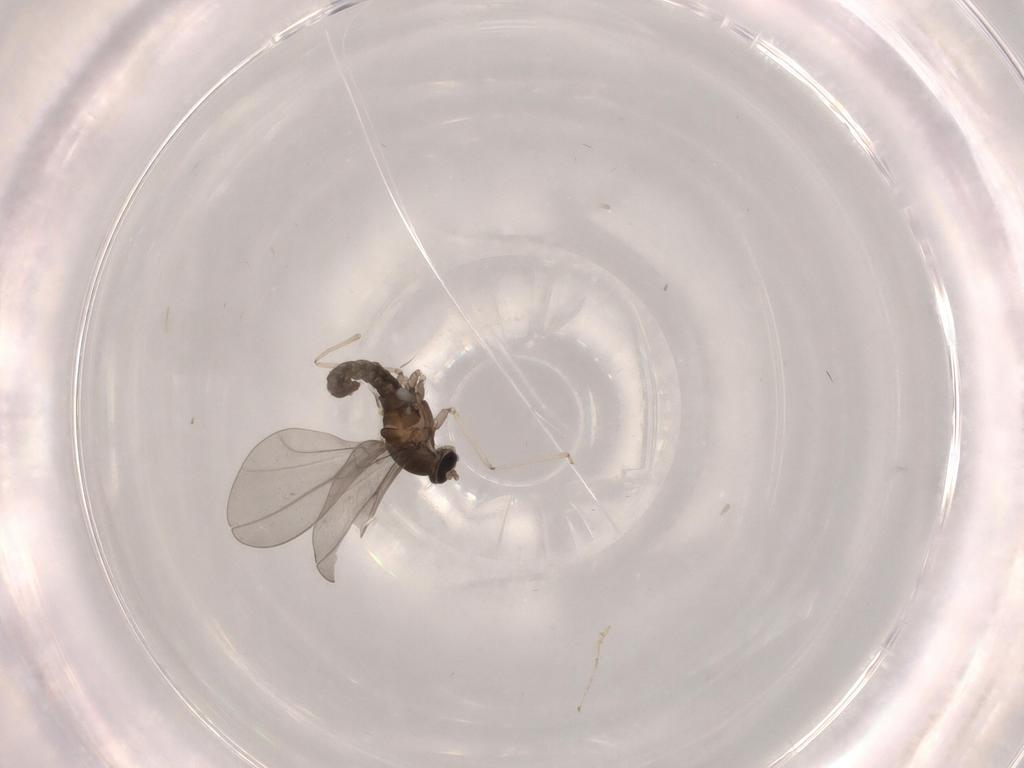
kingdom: Animalia
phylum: Arthropoda
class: Insecta
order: Diptera
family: Cecidomyiidae
